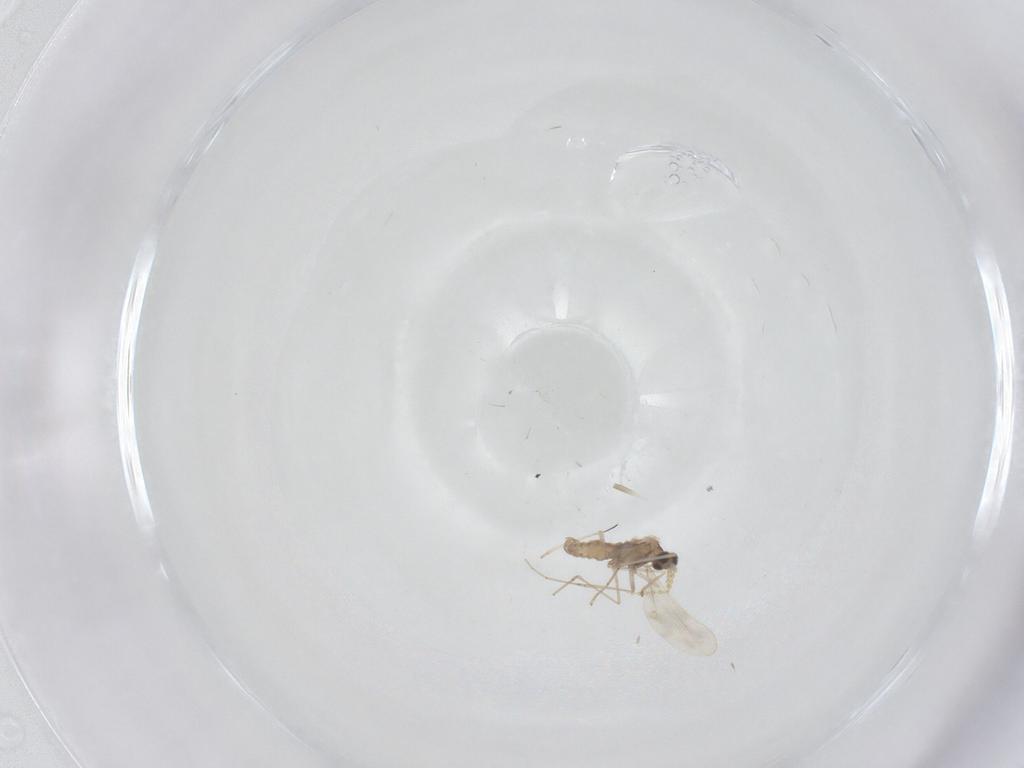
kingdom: Animalia
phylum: Arthropoda
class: Insecta
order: Diptera
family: Cecidomyiidae
